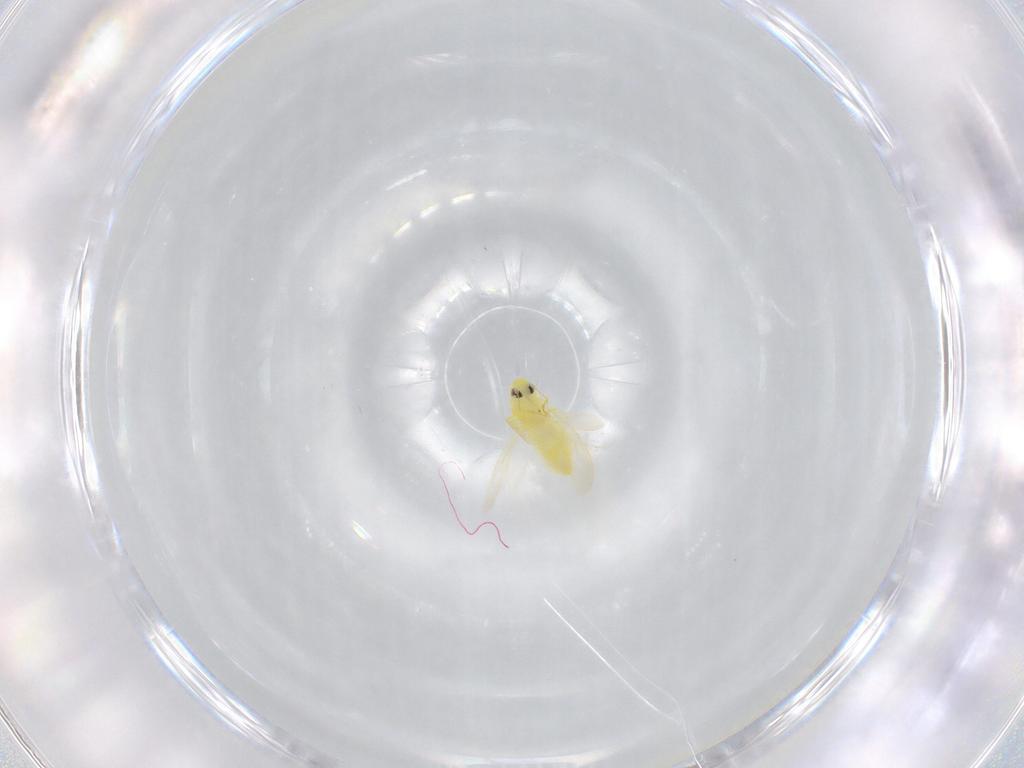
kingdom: Animalia
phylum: Arthropoda
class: Insecta
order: Hemiptera
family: Aleyrodidae
